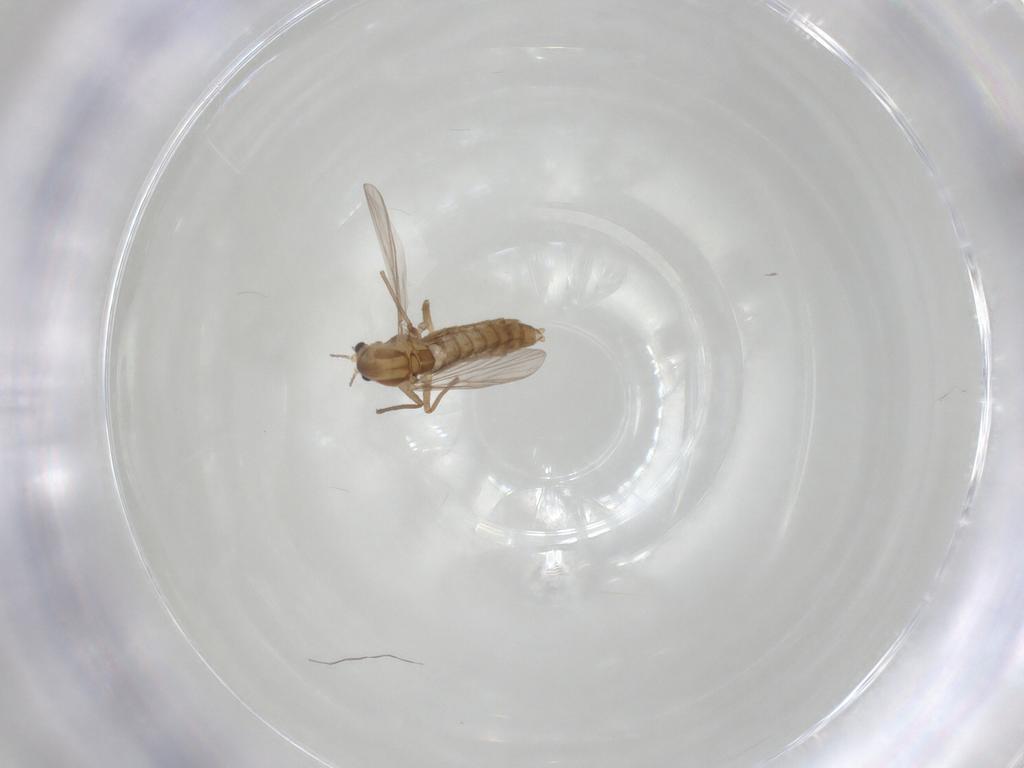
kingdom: Animalia
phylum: Arthropoda
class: Insecta
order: Diptera
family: Chironomidae
